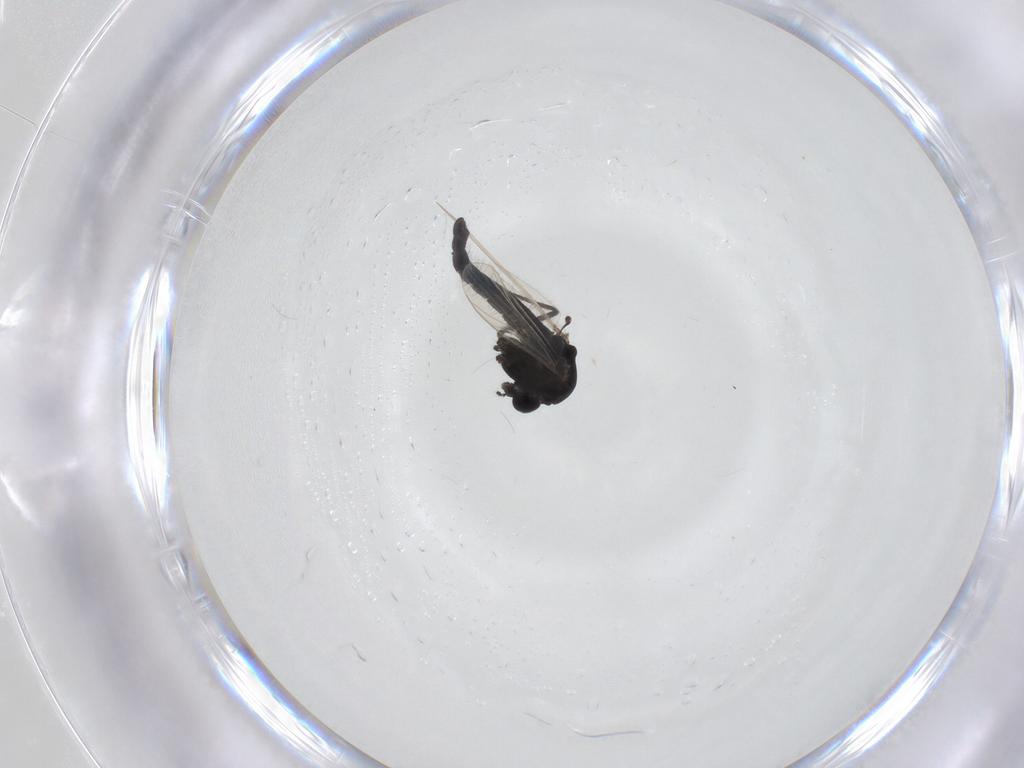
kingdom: Animalia
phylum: Arthropoda
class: Insecta
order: Diptera
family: Chironomidae
